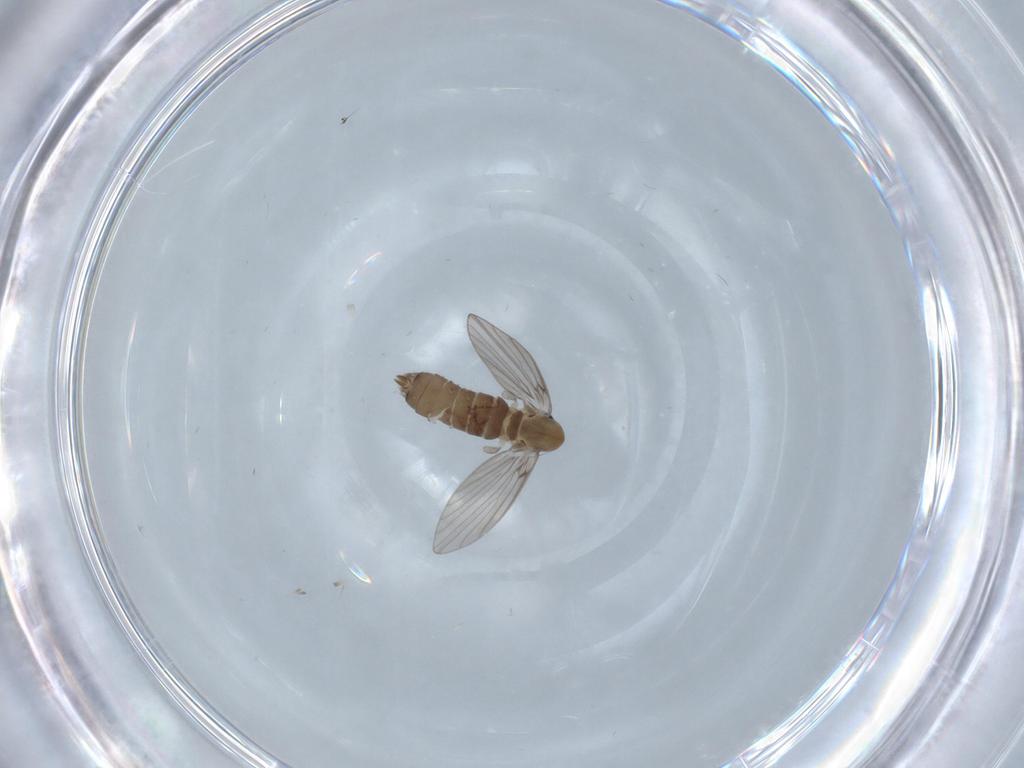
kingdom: Animalia
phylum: Arthropoda
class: Insecta
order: Diptera
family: Psychodidae
